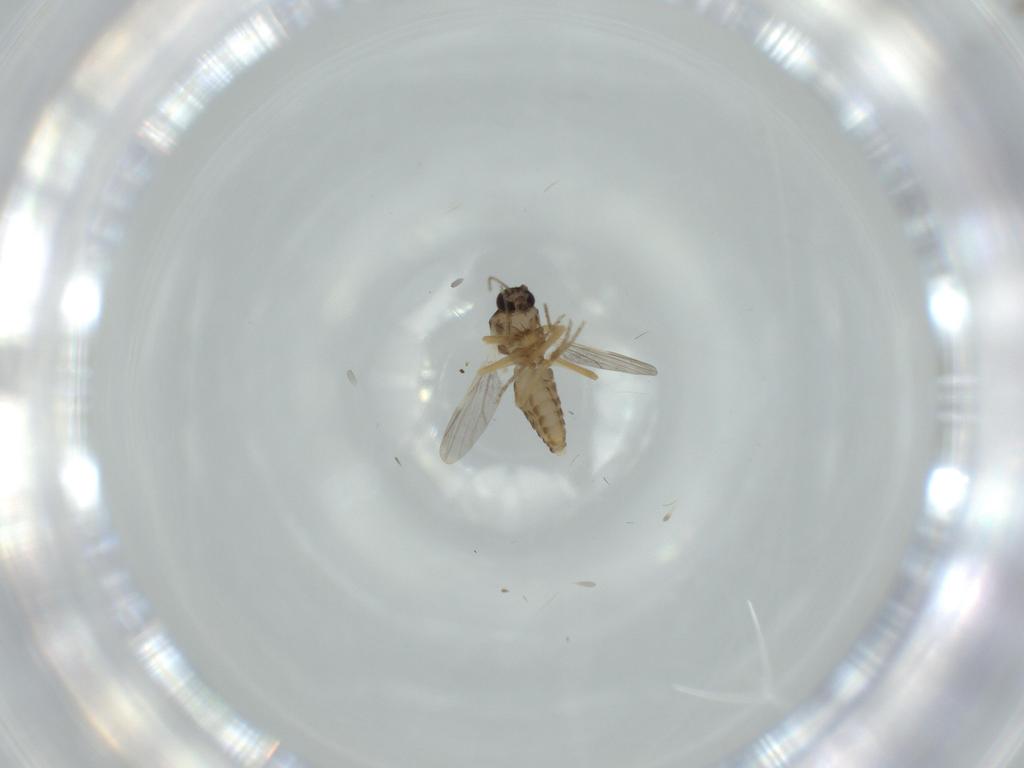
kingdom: Animalia
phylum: Arthropoda
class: Insecta
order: Diptera
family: Ceratopogonidae
